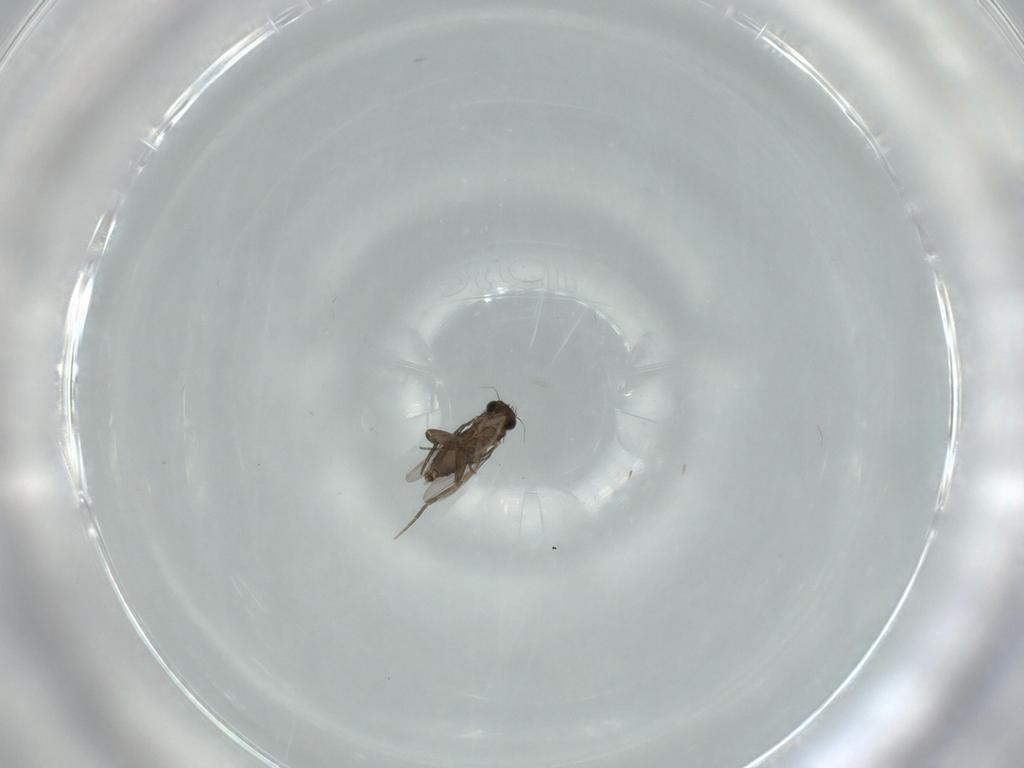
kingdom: Animalia
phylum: Arthropoda
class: Insecta
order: Diptera
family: Phoridae
